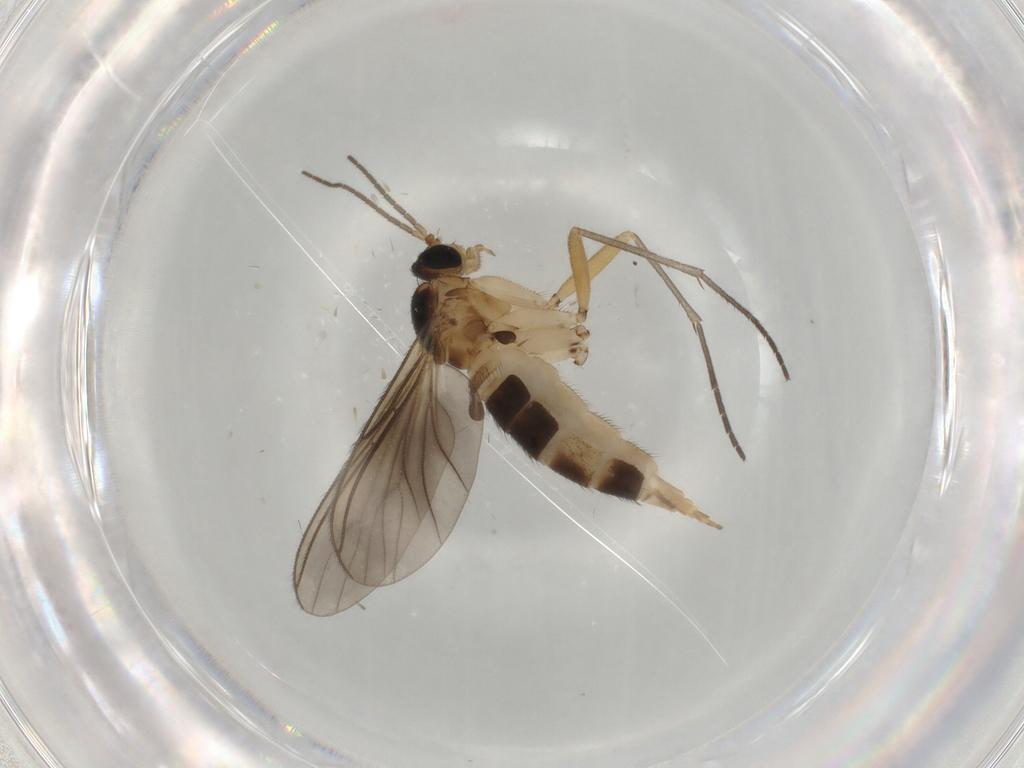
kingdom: Animalia
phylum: Arthropoda
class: Insecta
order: Diptera
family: Sciaridae
